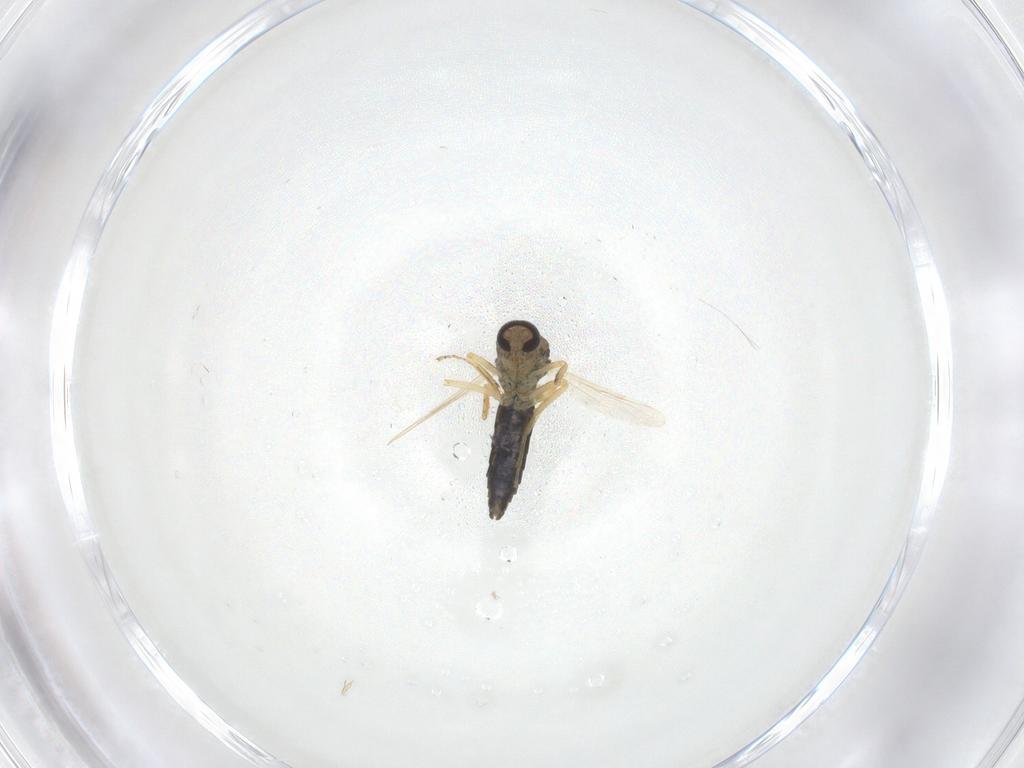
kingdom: Animalia
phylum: Arthropoda
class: Insecta
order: Diptera
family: Ceratopogonidae
